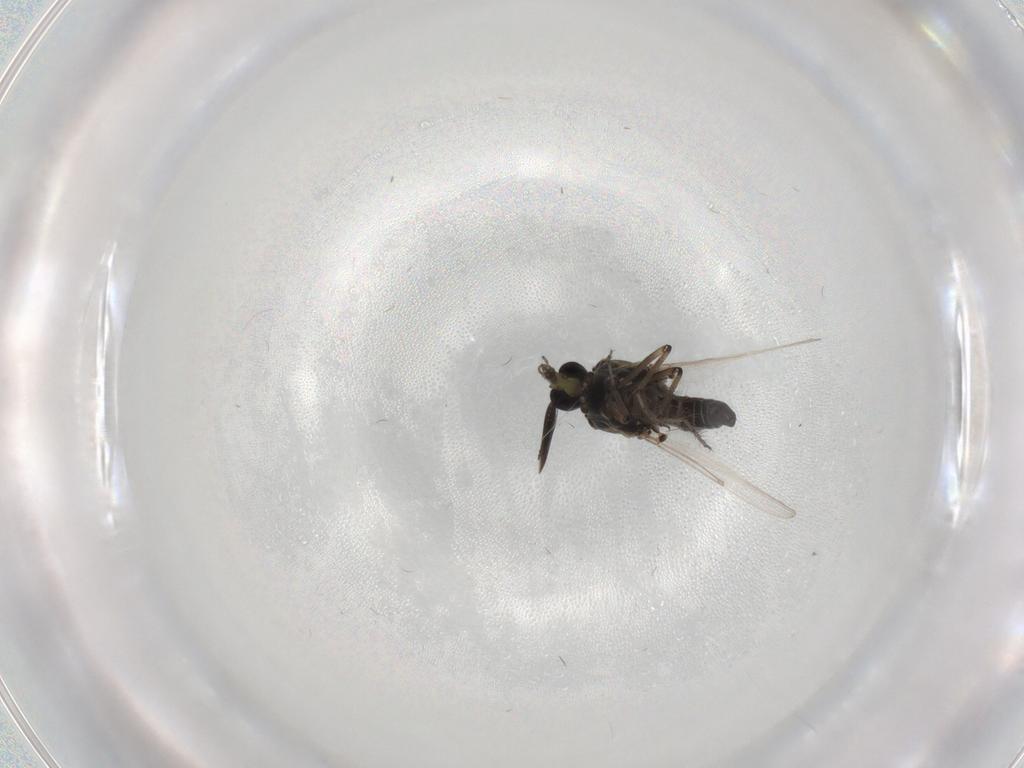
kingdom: Animalia
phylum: Arthropoda
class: Insecta
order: Diptera
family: Ceratopogonidae
